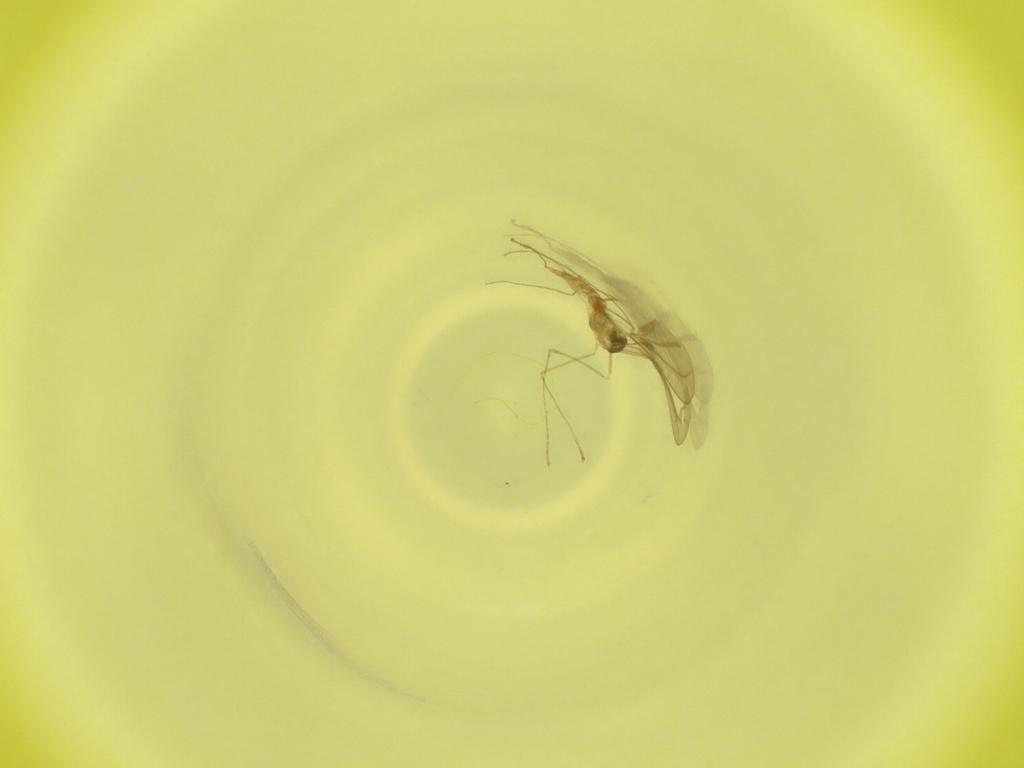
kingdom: Animalia
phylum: Arthropoda
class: Insecta
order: Diptera
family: Cecidomyiidae
